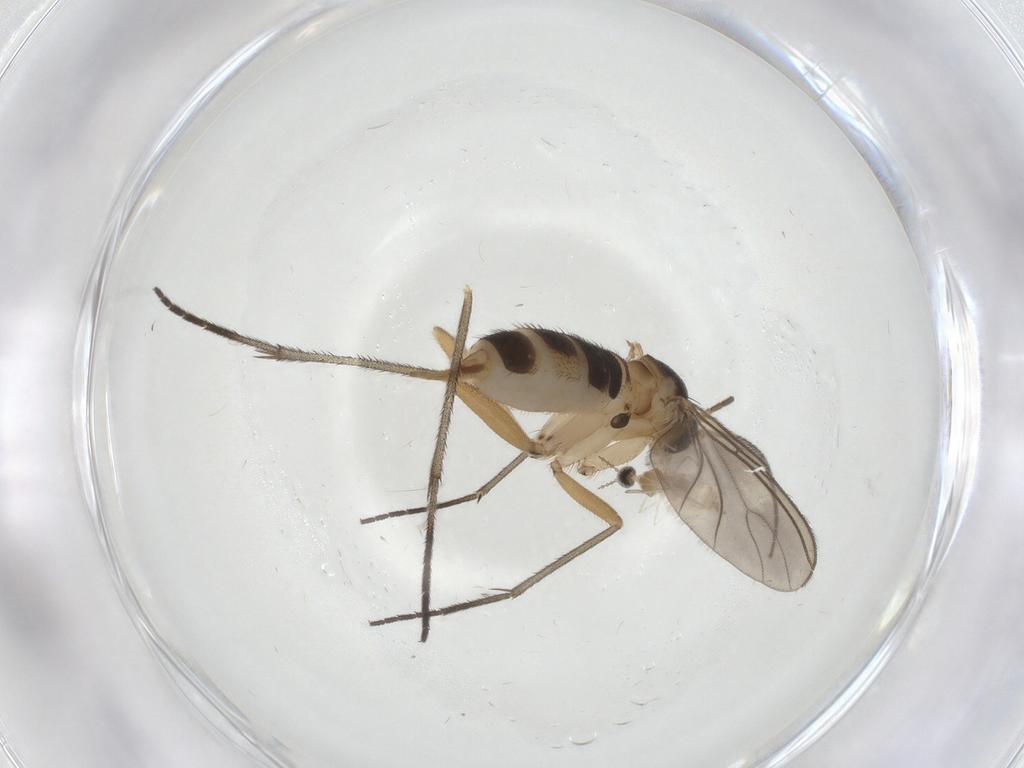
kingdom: Animalia
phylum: Arthropoda
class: Insecta
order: Diptera
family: Cecidomyiidae
